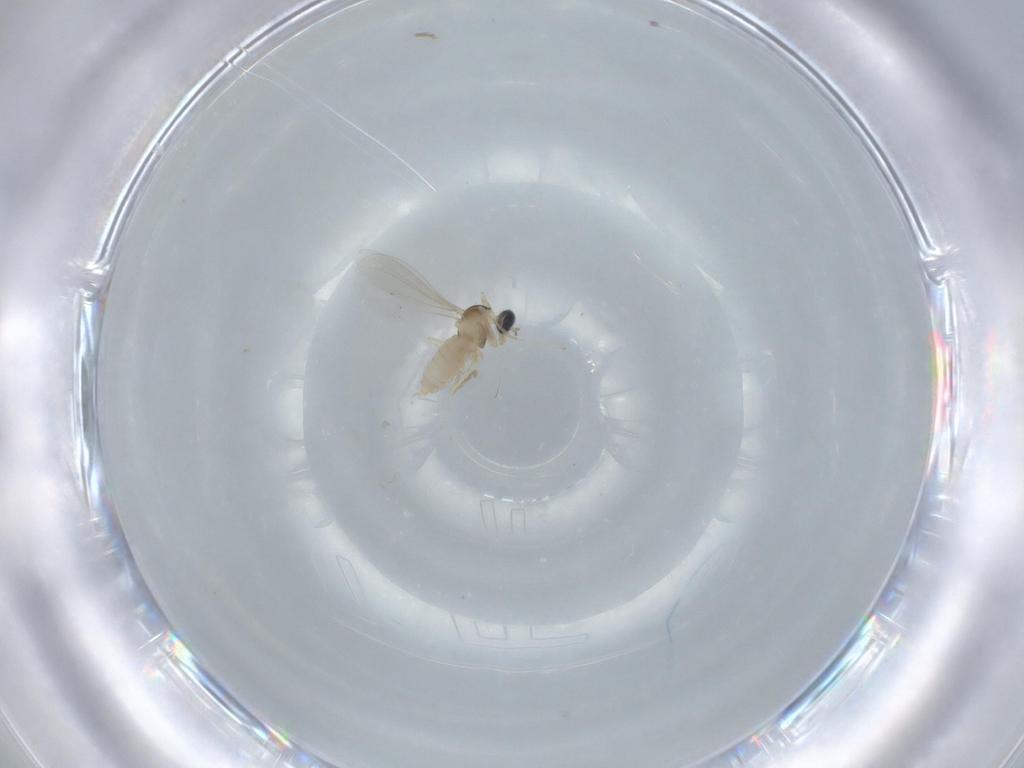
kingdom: Animalia
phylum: Arthropoda
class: Insecta
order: Diptera
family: Cecidomyiidae
